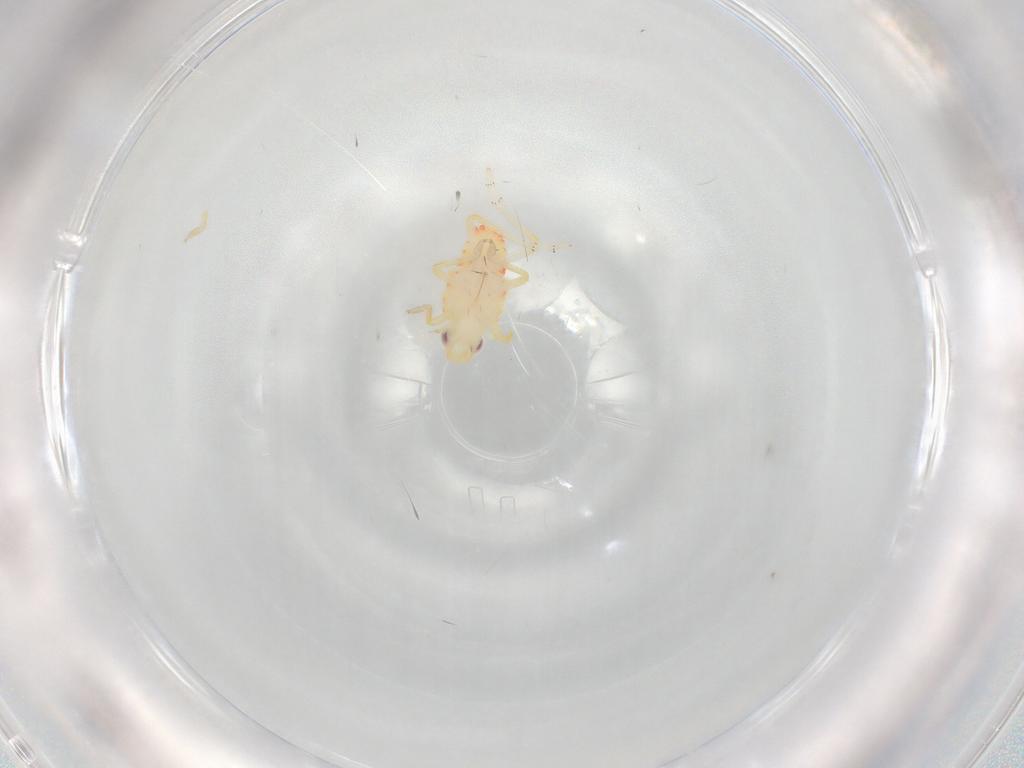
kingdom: Animalia
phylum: Arthropoda
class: Insecta
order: Hemiptera
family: Tropiduchidae
